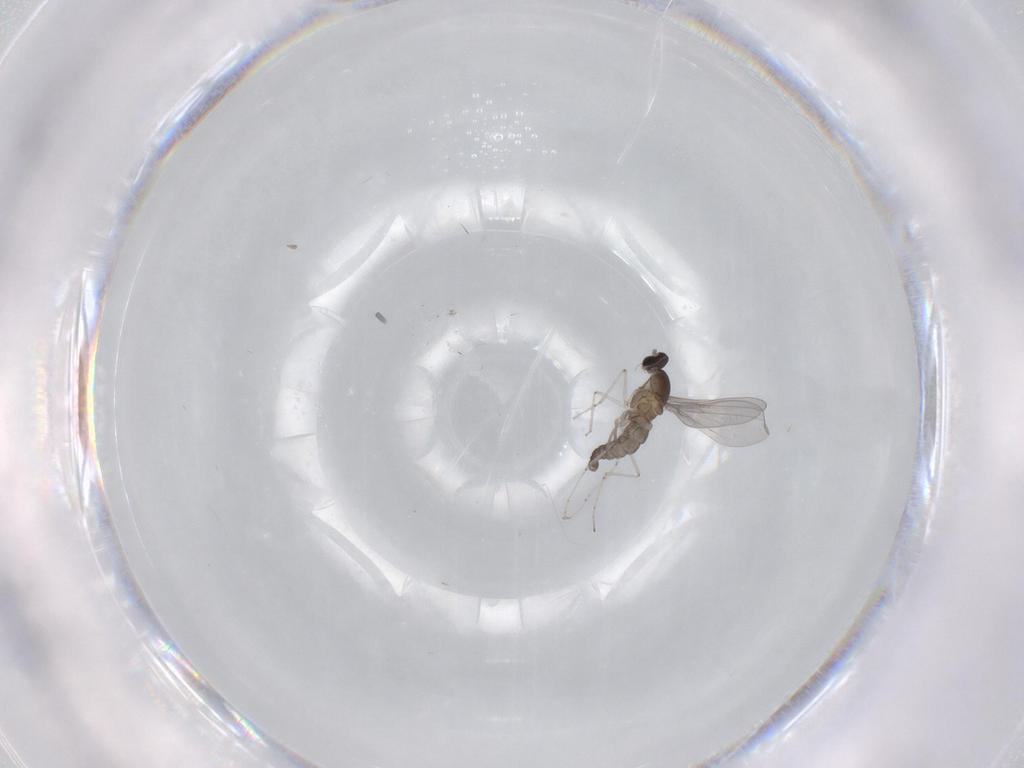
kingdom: Animalia
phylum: Arthropoda
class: Insecta
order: Diptera
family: Cecidomyiidae
